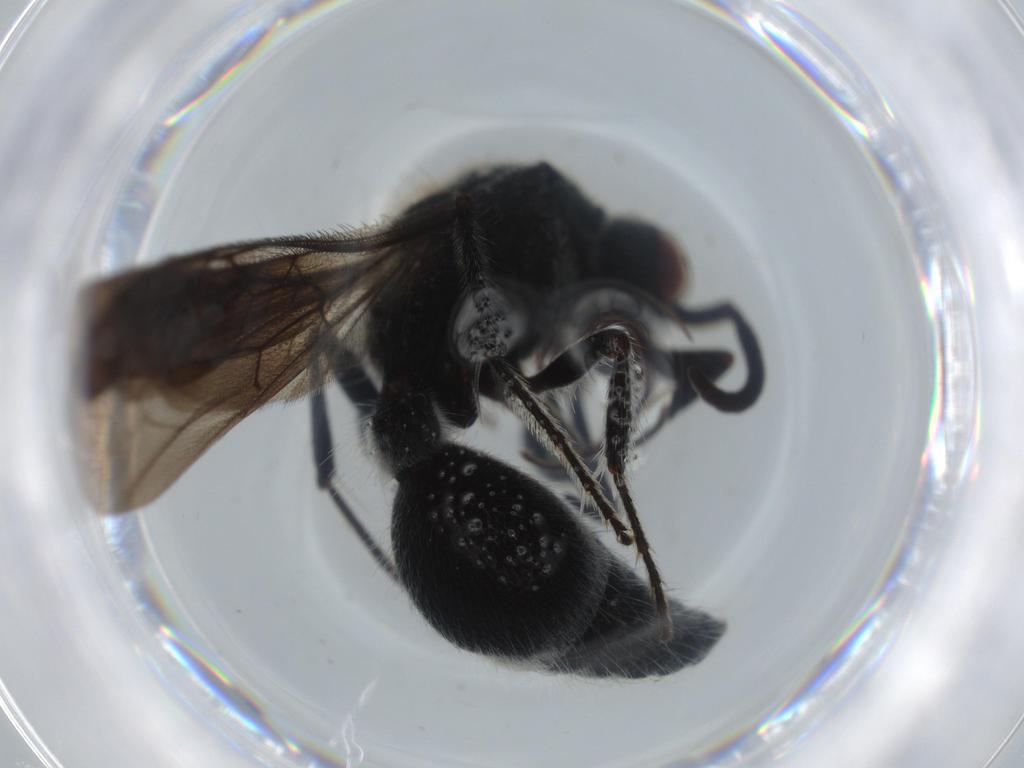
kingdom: Animalia
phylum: Arthropoda
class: Insecta
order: Hymenoptera
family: Mutillidae
